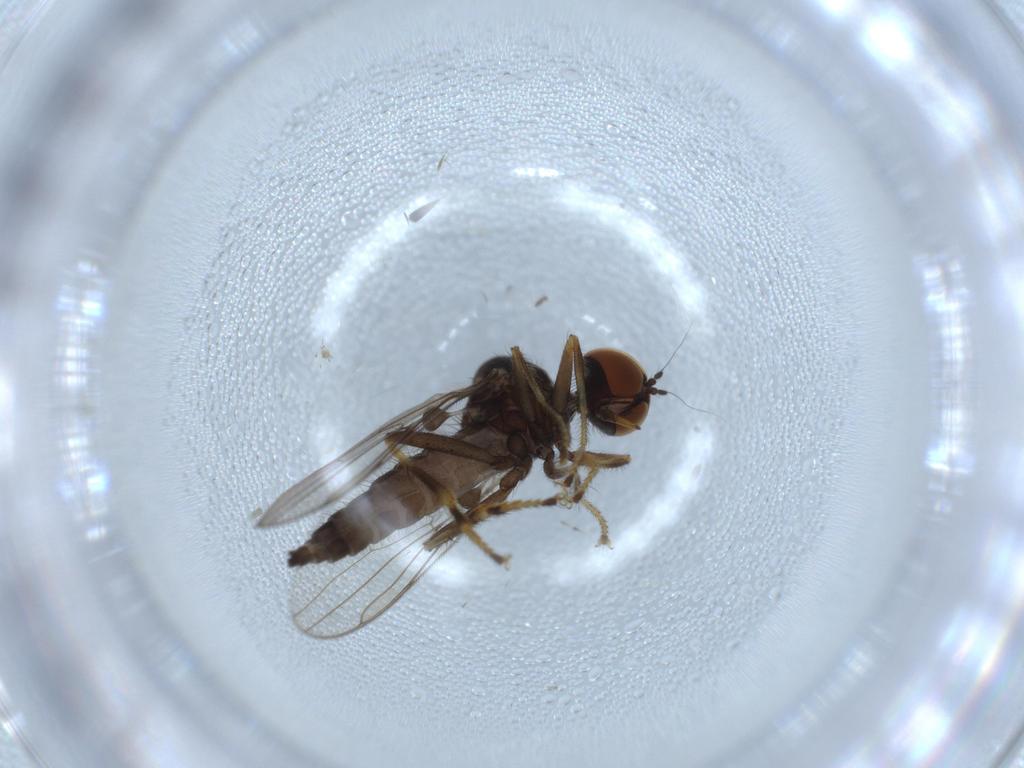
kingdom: Animalia
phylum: Arthropoda
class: Insecta
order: Diptera
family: Hybotidae
